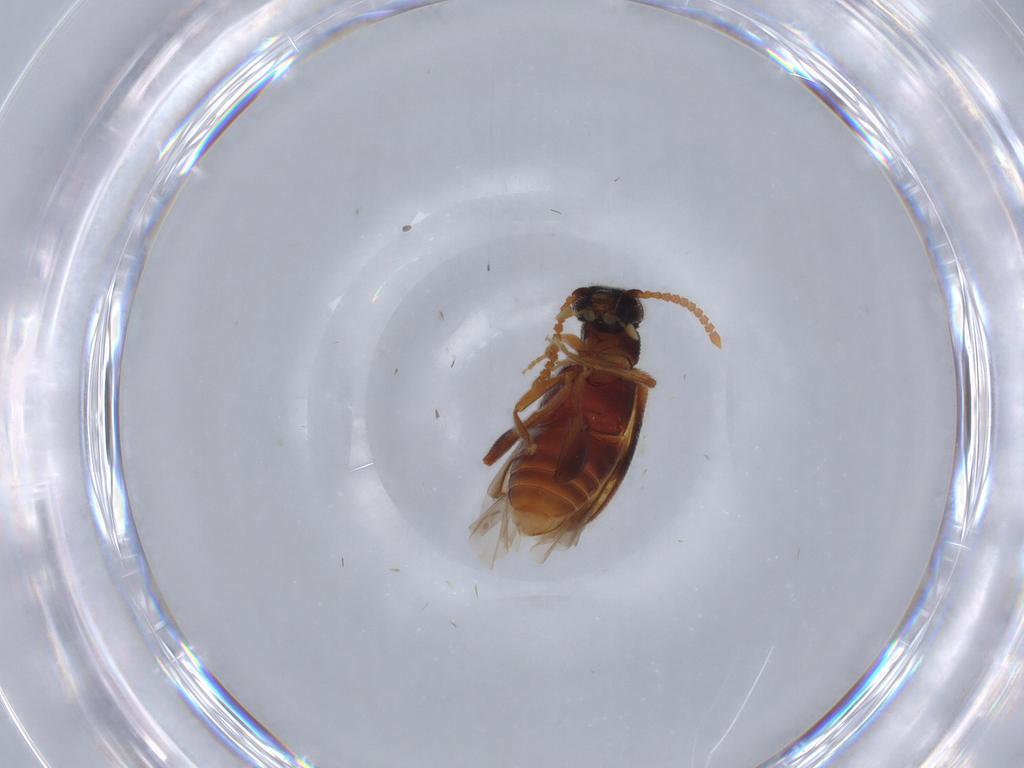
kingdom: Animalia
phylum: Arthropoda
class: Insecta
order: Coleoptera
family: Aderidae
